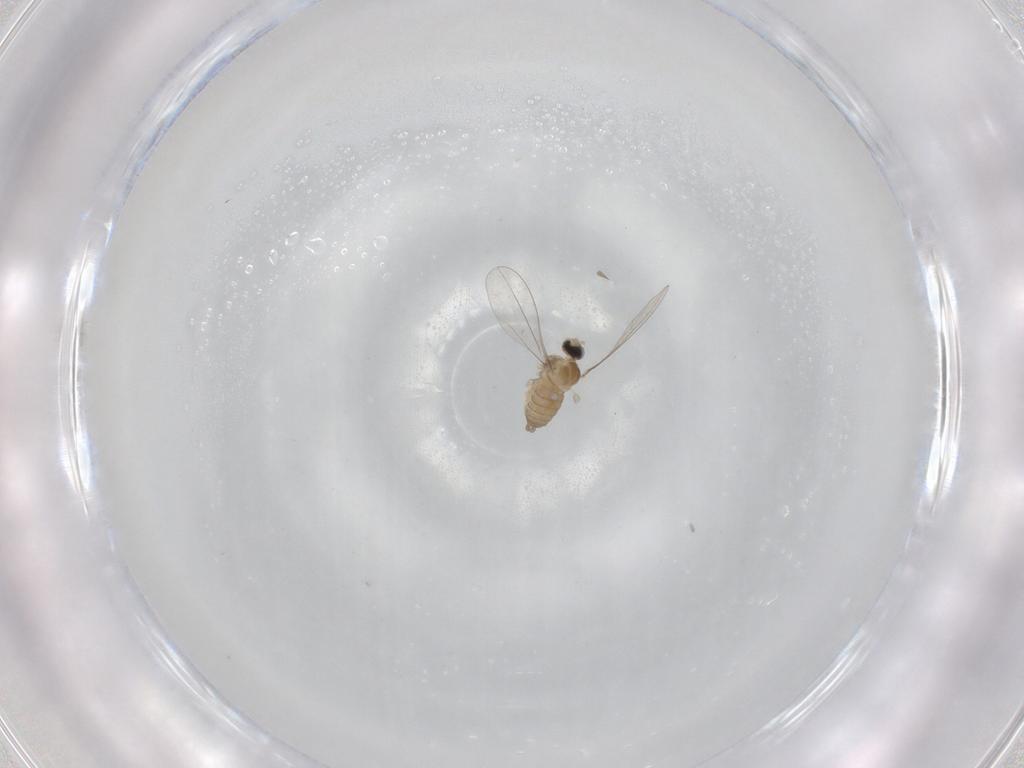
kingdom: Animalia
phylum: Arthropoda
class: Insecta
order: Diptera
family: Cecidomyiidae
